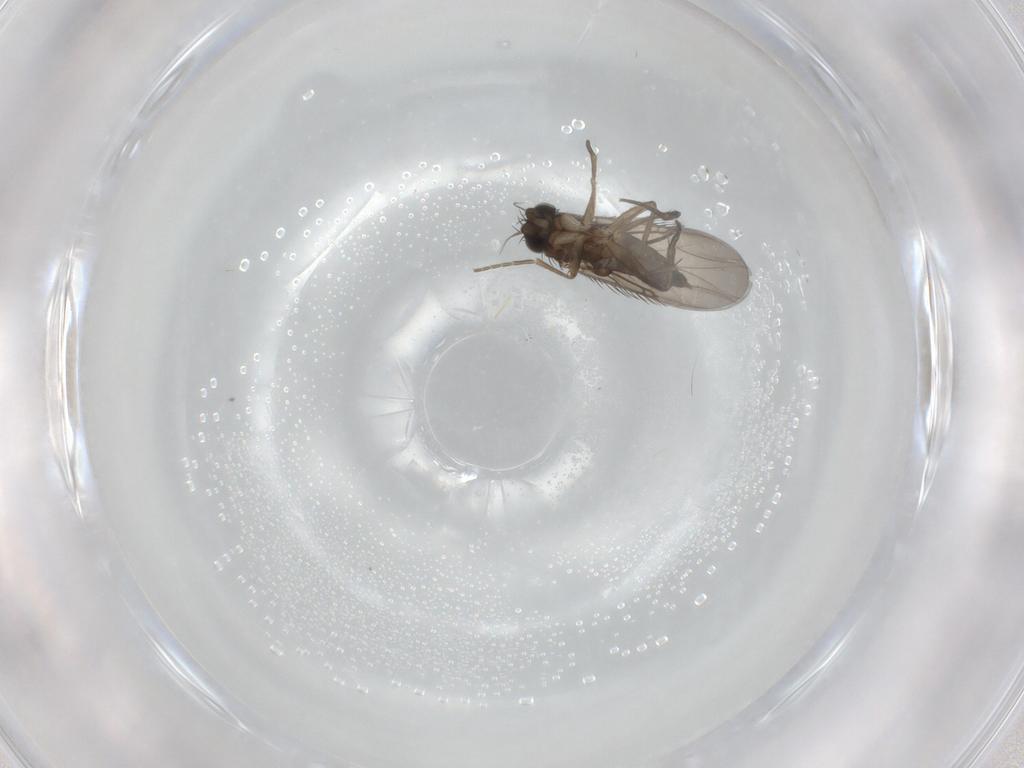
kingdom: Animalia
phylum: Arthropoda
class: Insecta
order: Diptera
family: Phoridae
